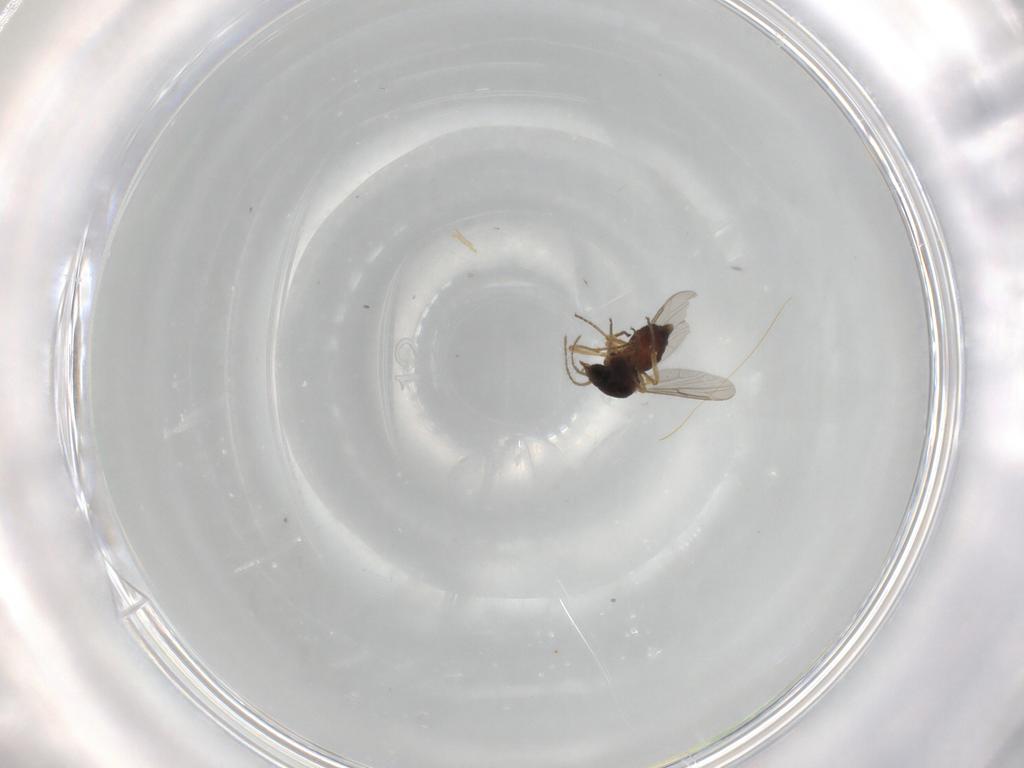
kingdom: Animalia
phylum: Arthropoda
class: Insecta
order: Diptera
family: Ceratopogonidae
